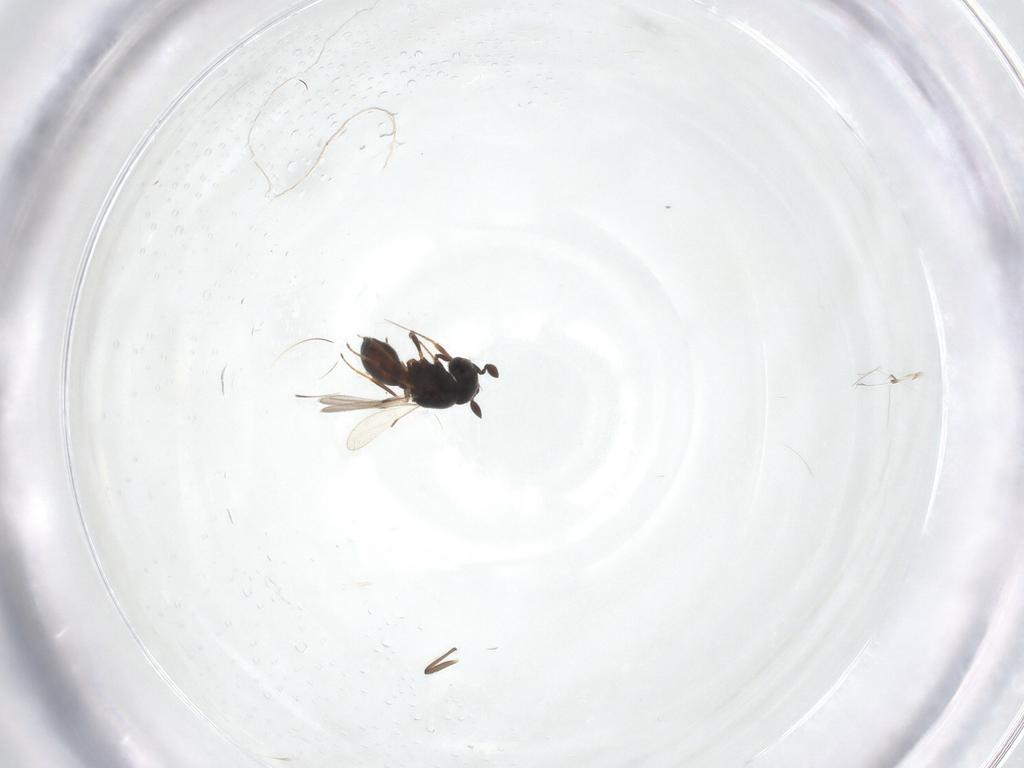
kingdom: Animalia
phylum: Arthropoda
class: Insecta
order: Hymenoptera
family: Scelionidae
